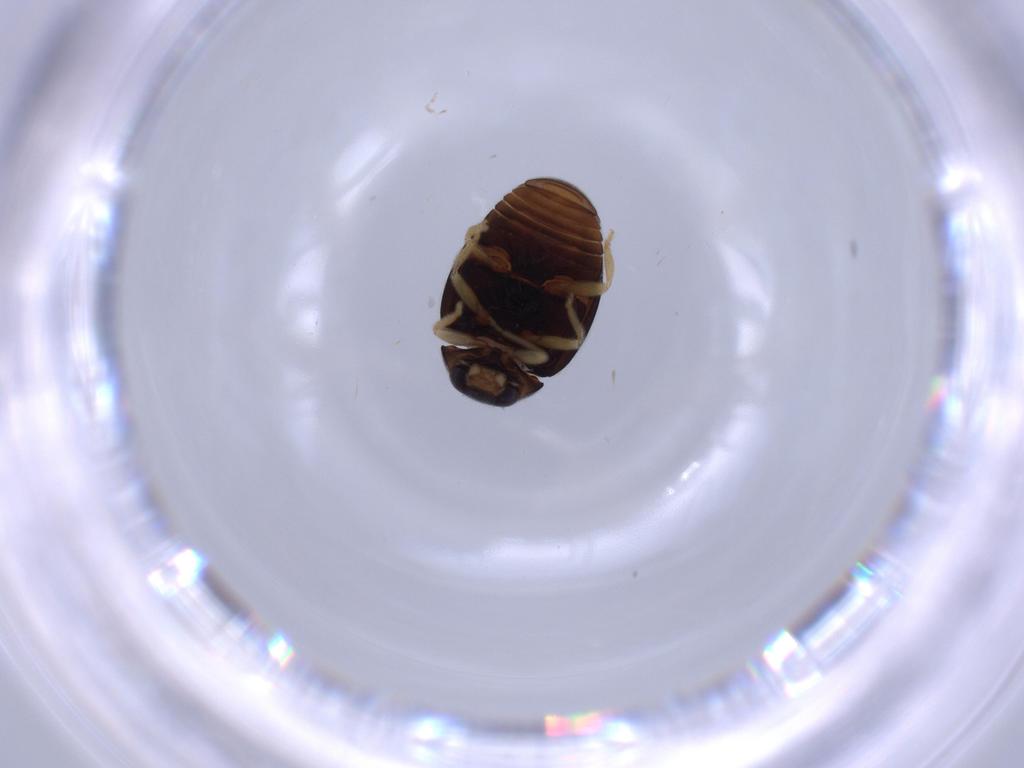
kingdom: Animalia
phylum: Arthropoda
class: Insecta
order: Coleoptera
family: Coccinellidae
